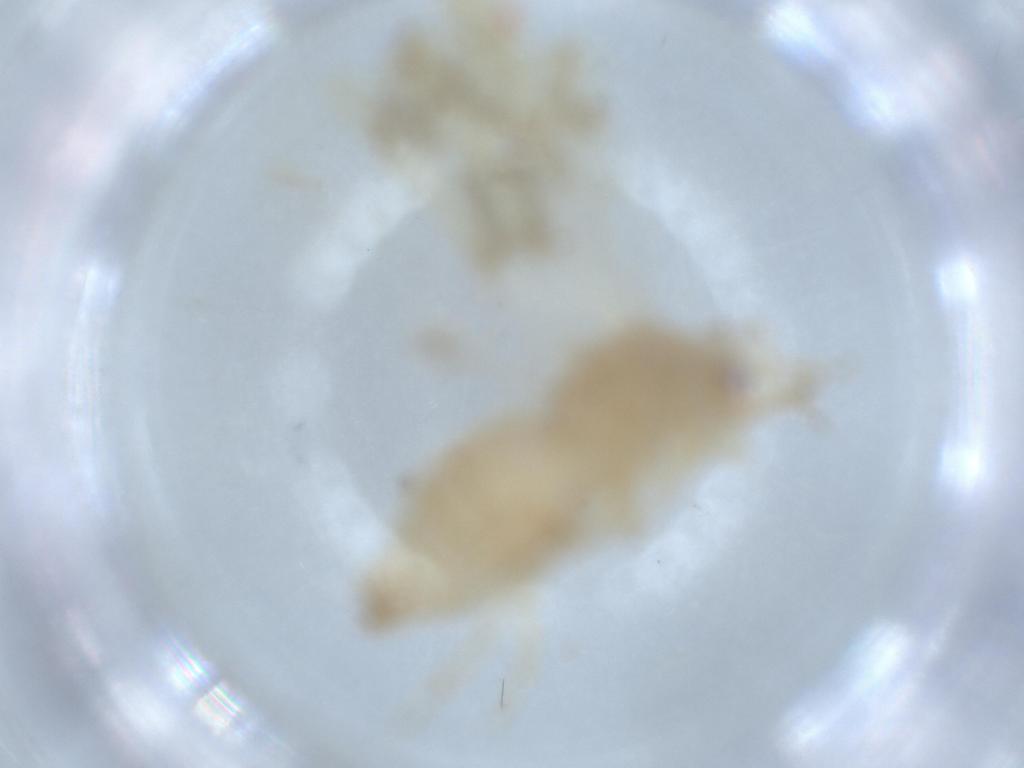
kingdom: Animalia
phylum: Arthropoda
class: Insecta
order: Hemiptera
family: Derbidae
